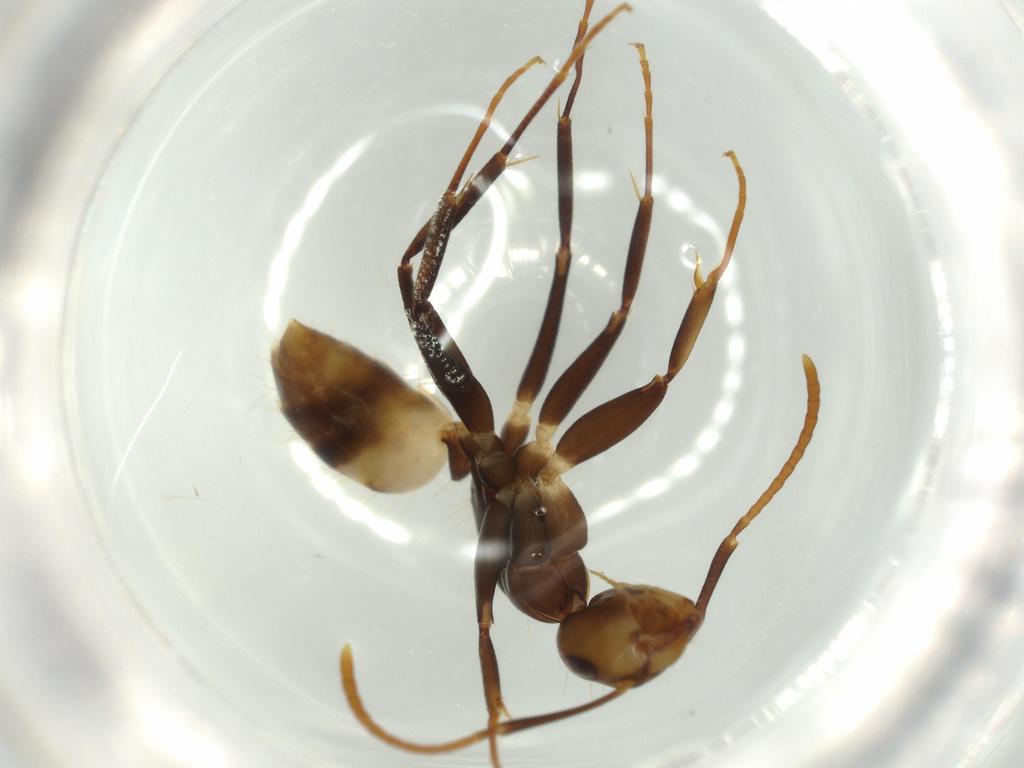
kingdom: Animalia
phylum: Arthropoda
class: Insecta
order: Hymenoptera
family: Formicidae
